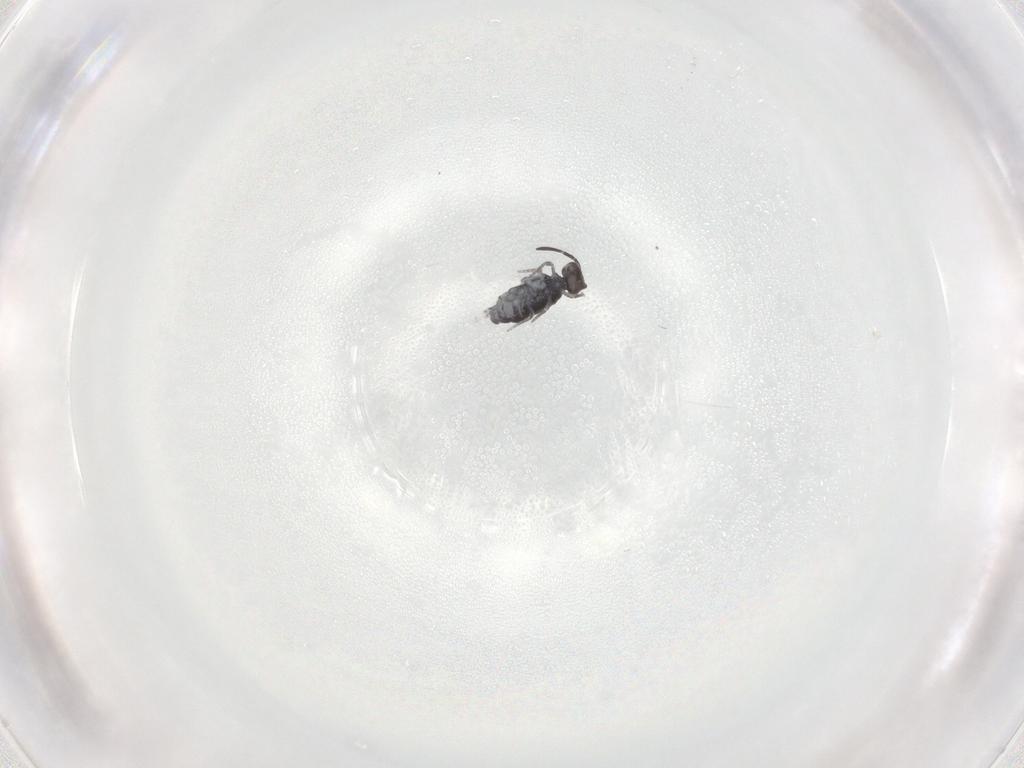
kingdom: Animalia
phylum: Arthropoda
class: Collembola
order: Symphypleona
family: Katiannidae
